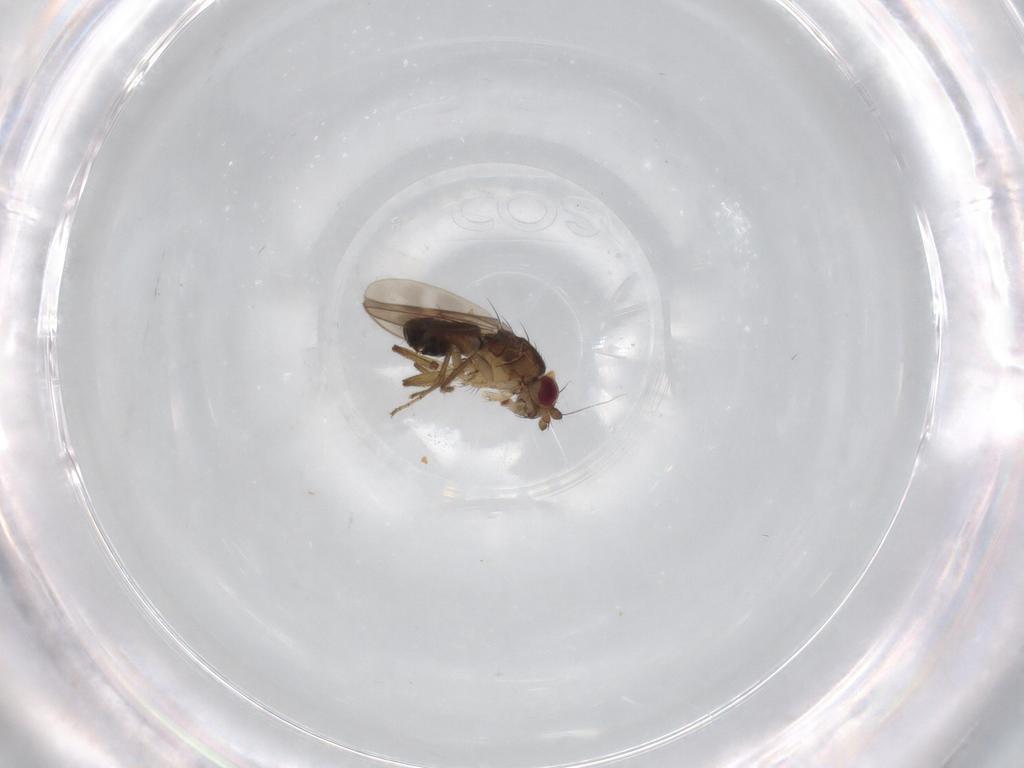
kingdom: Animalia
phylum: Arthropoda
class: Insecta
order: Diptera
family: Sphaeroceridae
